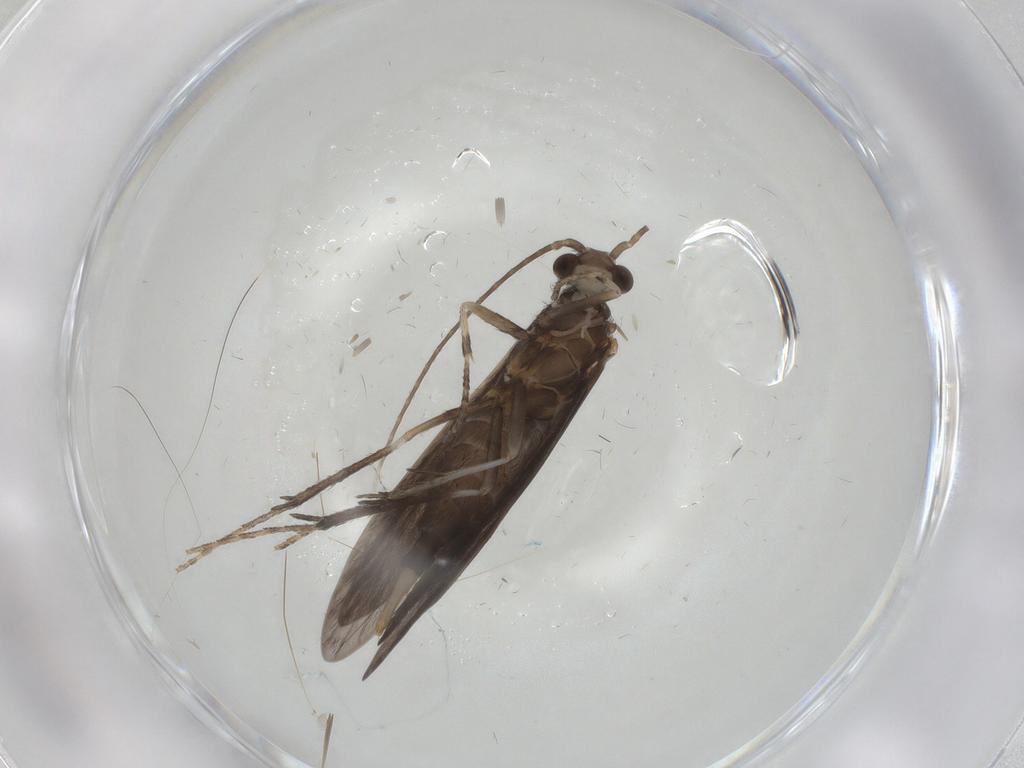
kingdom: Animalia
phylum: Arthropoda
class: Insecta
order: Trichoptera
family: Xiphocentronidae
